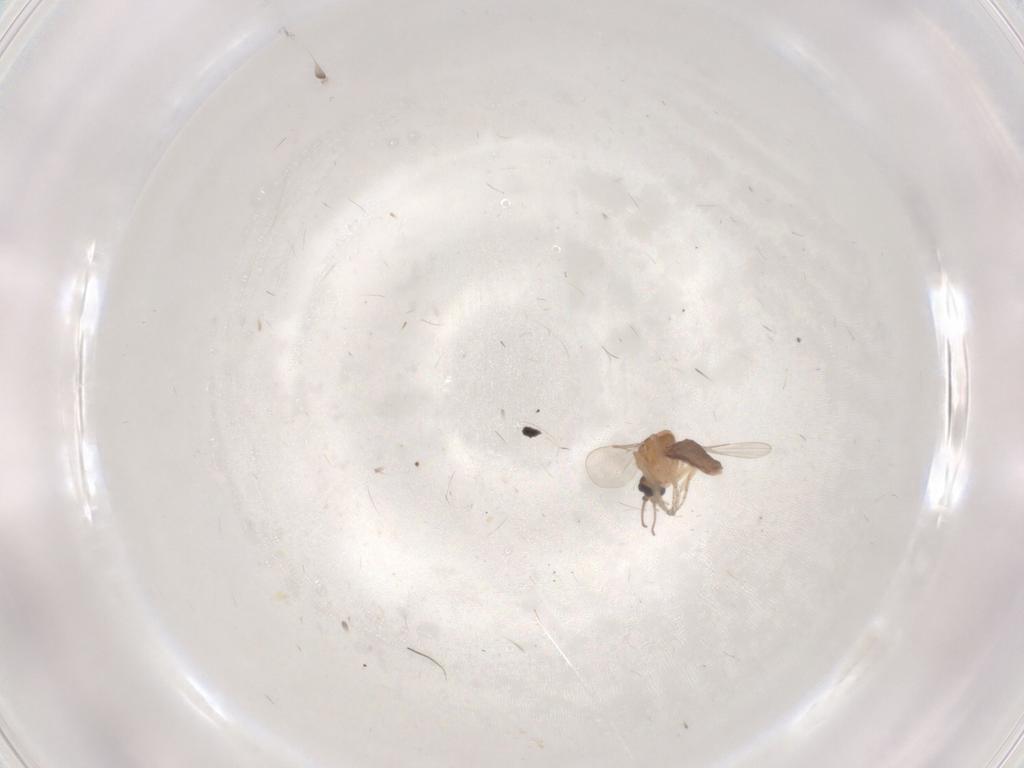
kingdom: Animalia
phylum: Arthropoda
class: Insecta
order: Diptera
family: Ceratopogonidae
